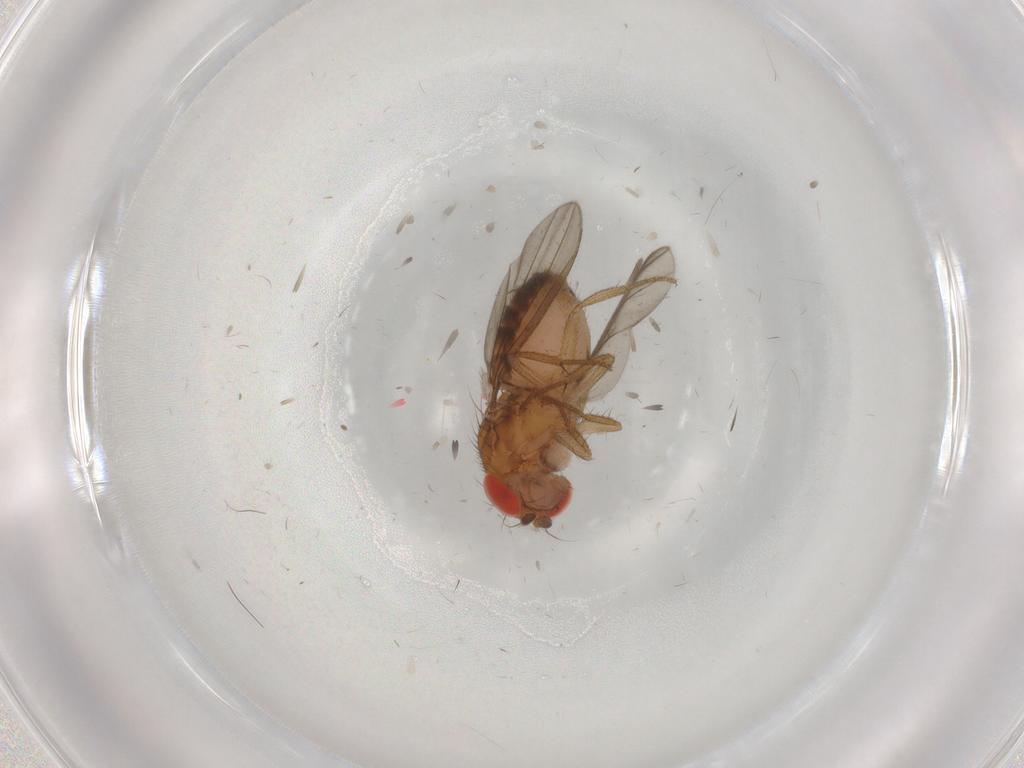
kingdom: Animalia
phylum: Arthropoda
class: Insecta
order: Diptera
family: Drosophilidae
